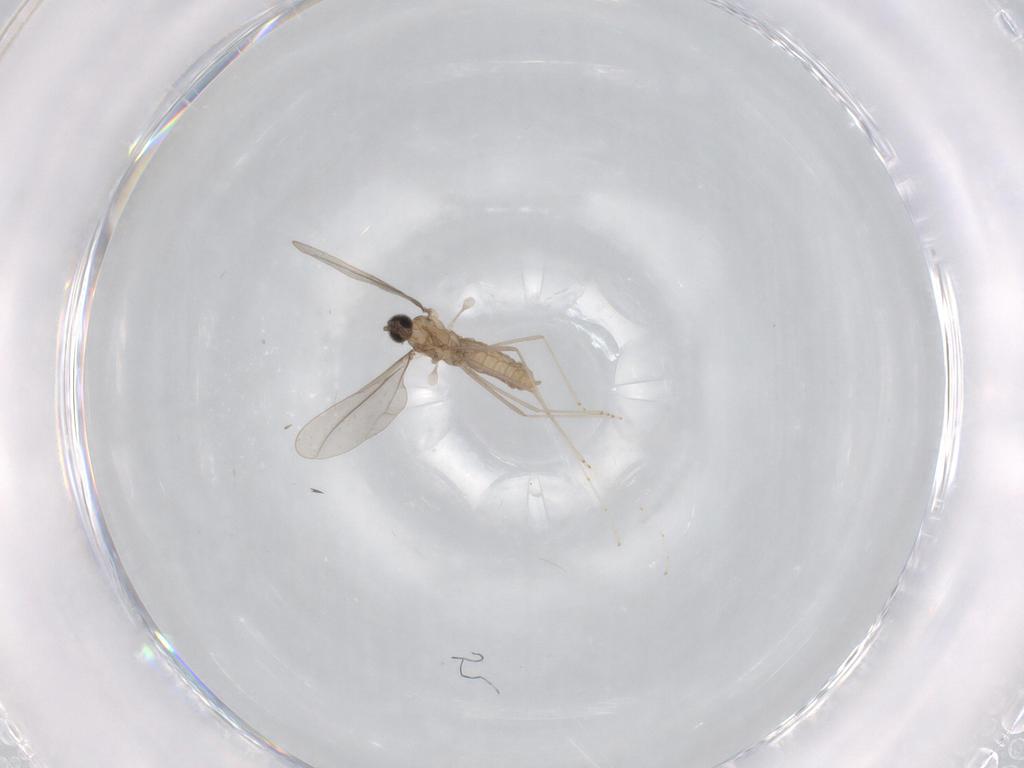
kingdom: Animalia
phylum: Arthropoda
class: Insecta
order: Diptera
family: Cecidomyiidae
